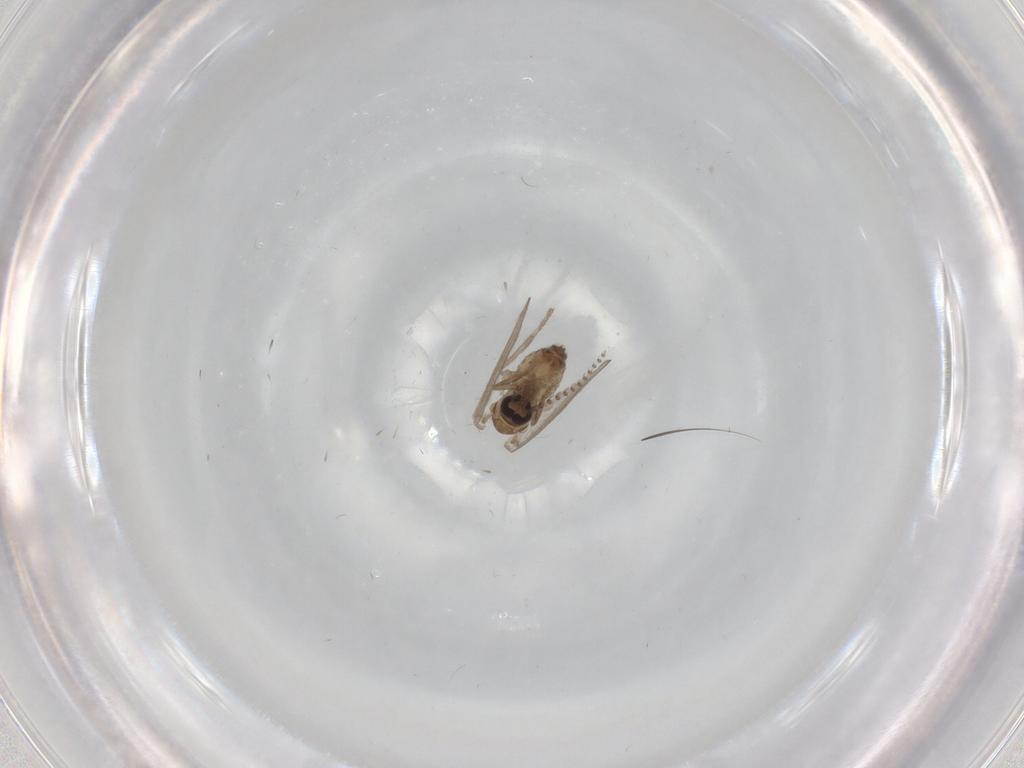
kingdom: Animalia
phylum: Arthropoda
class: Insecta
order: Diptera
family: Psychodidae
